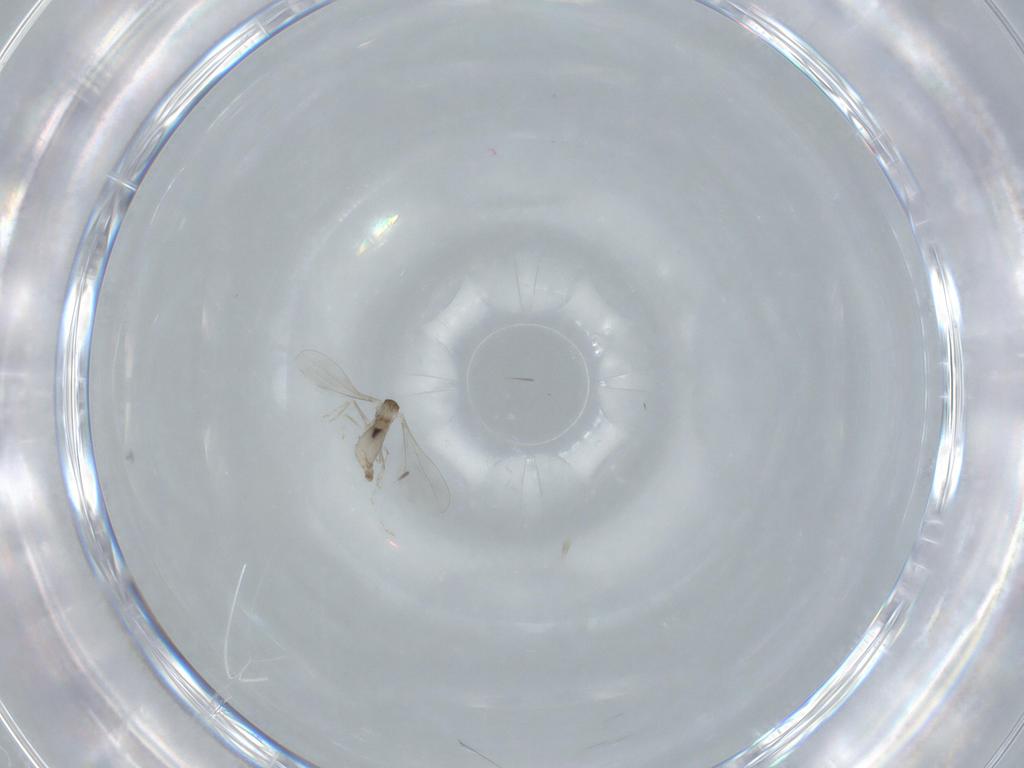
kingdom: Animalia
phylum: Arthropoda
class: Insecta
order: Diptera
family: Cecidomyiidae
